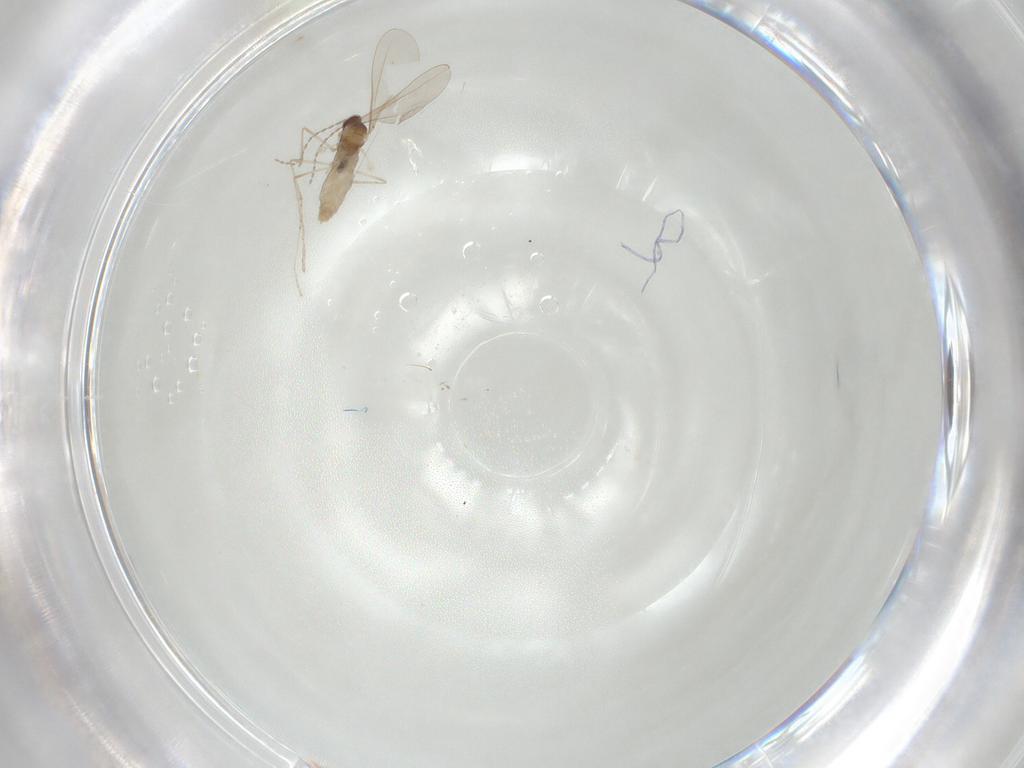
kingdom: Animalia
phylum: Arthropoda
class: Insecta
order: Diptera
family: Cecidomyiidae
